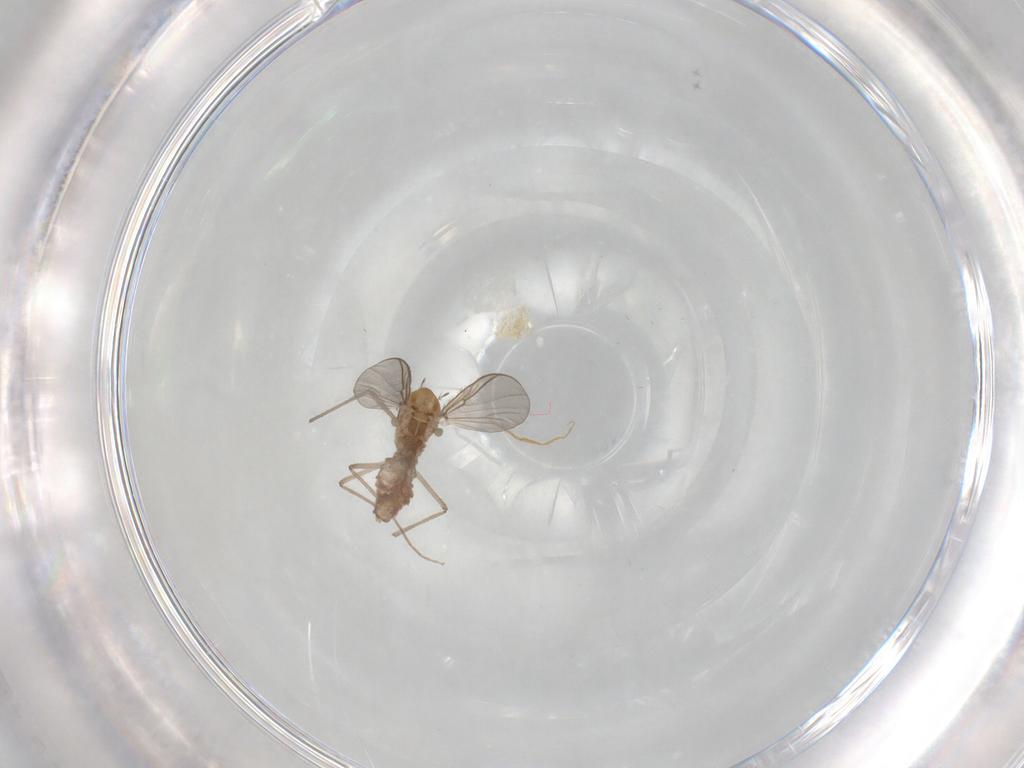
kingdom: Animalia
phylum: Arthropoda
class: Insecta
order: Diptera
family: Chironomidae
